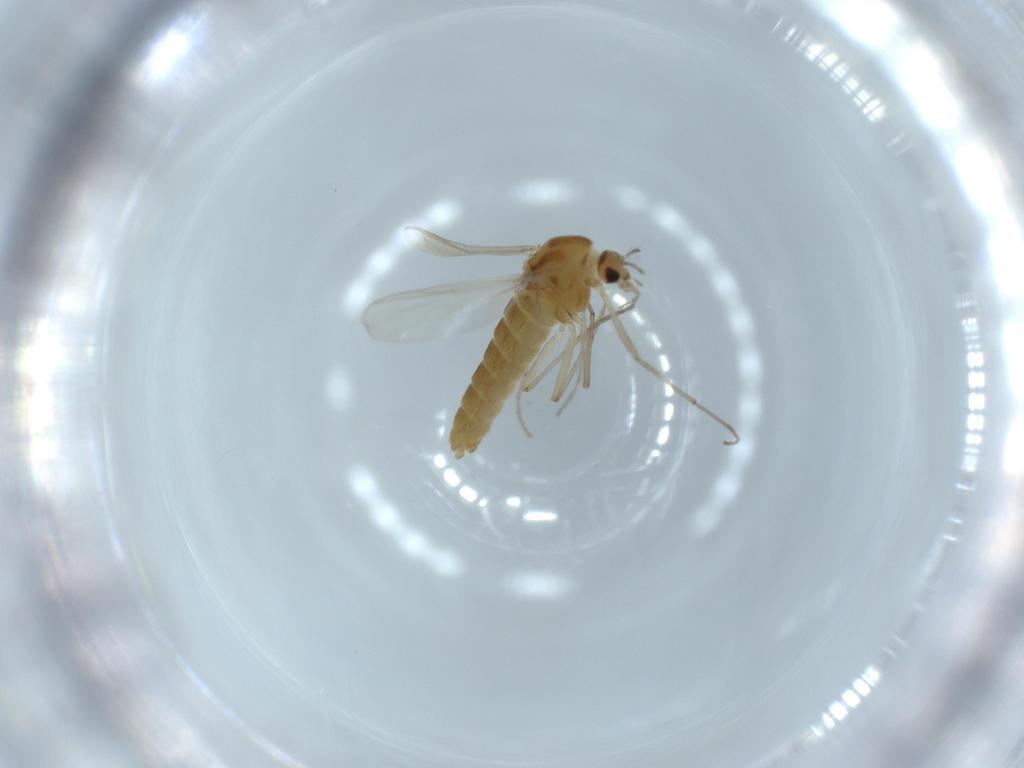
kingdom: Animalia
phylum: Arthropoda
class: Insecta
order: Diptera
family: Chironomidae
